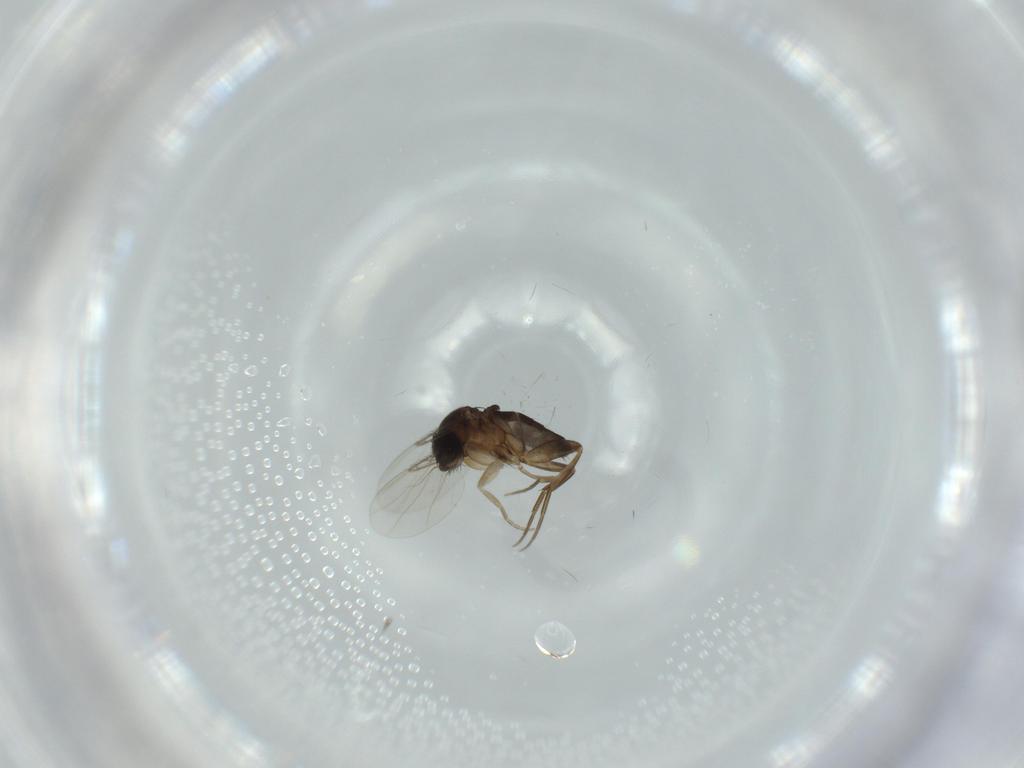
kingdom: Animalia
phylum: Arthropoda
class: Insecta
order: Diptera
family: Phoridae
